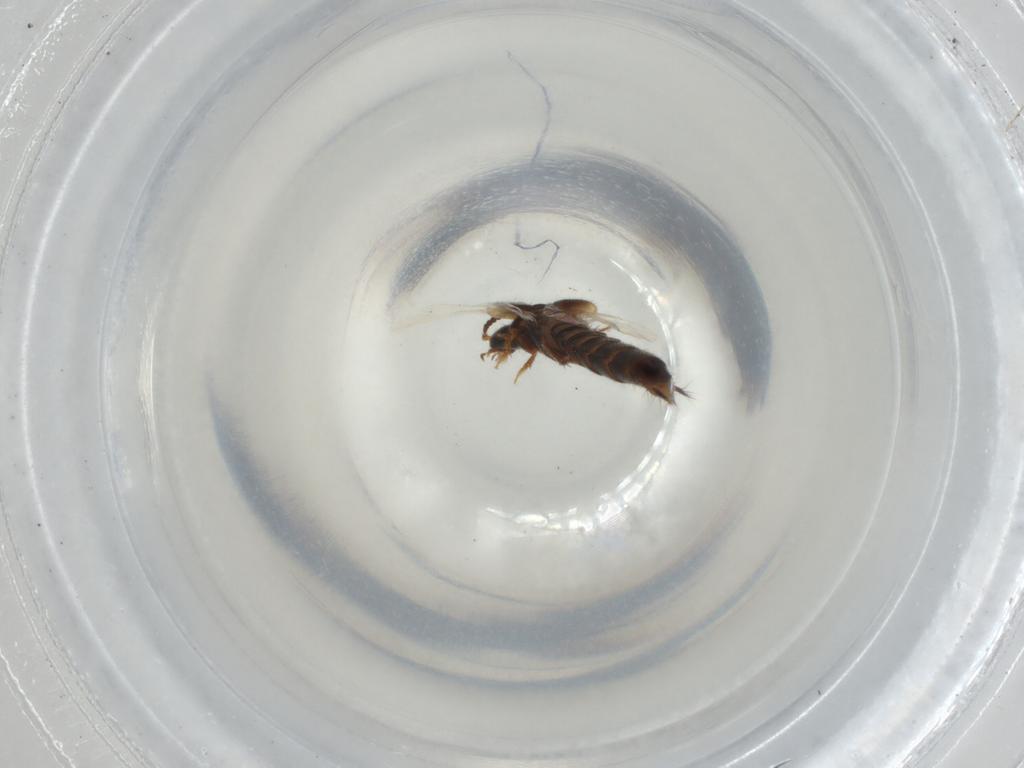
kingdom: Animalia
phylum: Arthropoda
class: Insecta
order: Coleoptera
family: Staphylinidae
